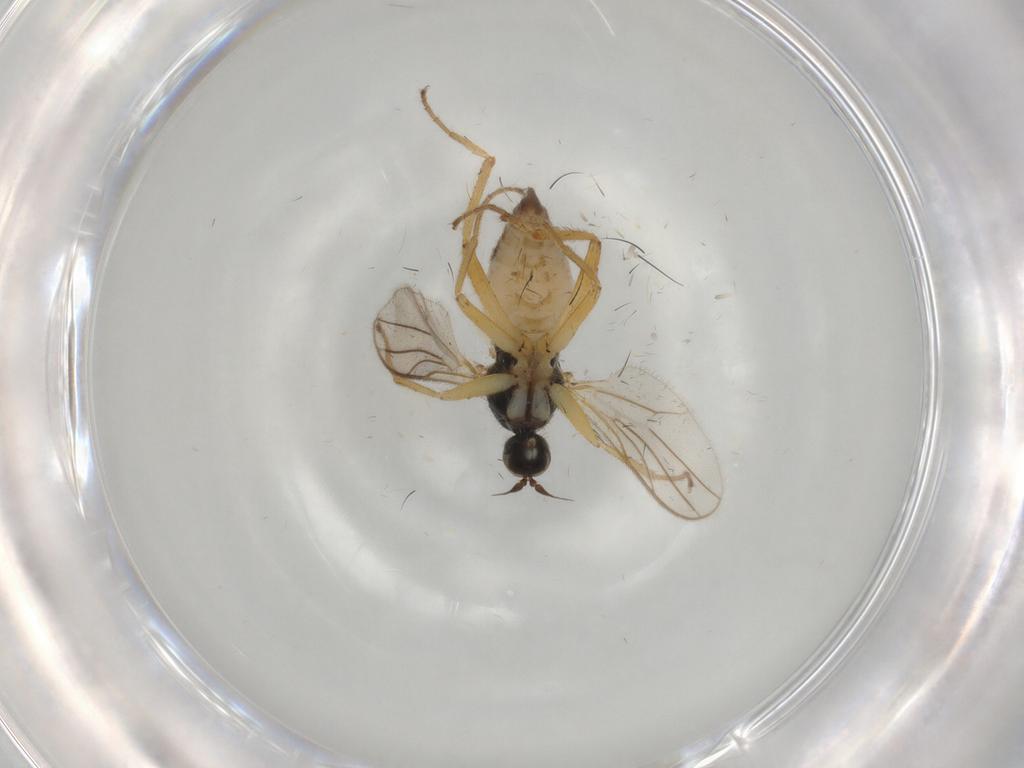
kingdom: Animalia
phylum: Arthropoda
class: Insecta
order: Diptera
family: Hybotidae
